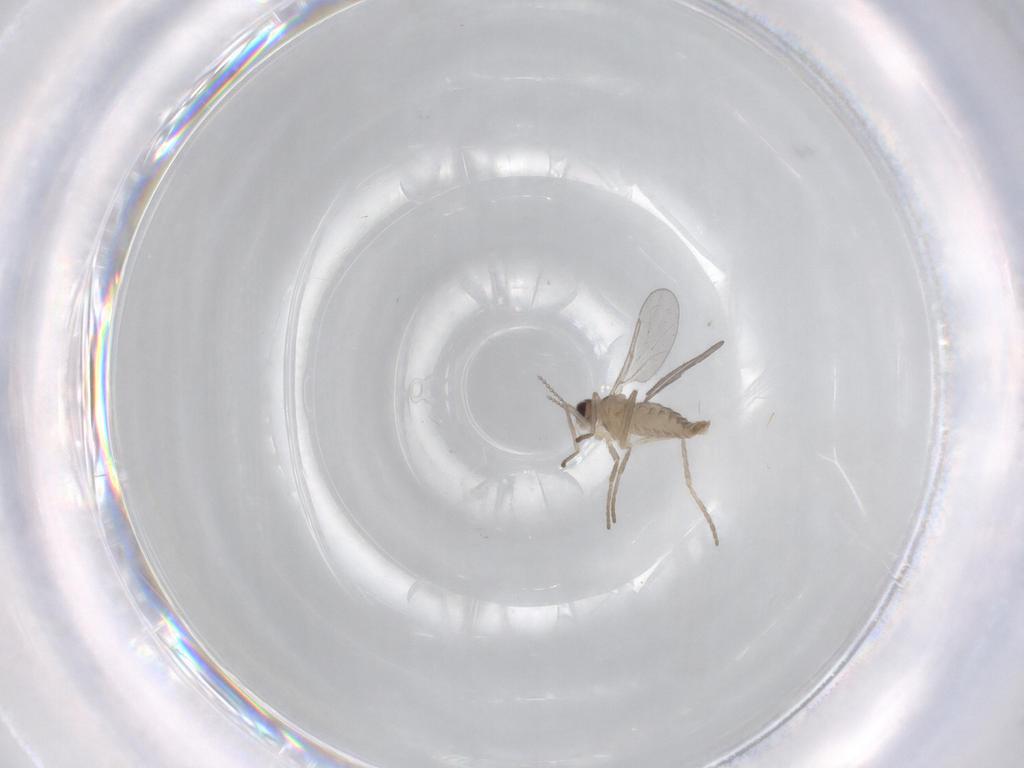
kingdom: Animalia
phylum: Arthropoda
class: Insecta
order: Diptera
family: Cecidomyiidae
